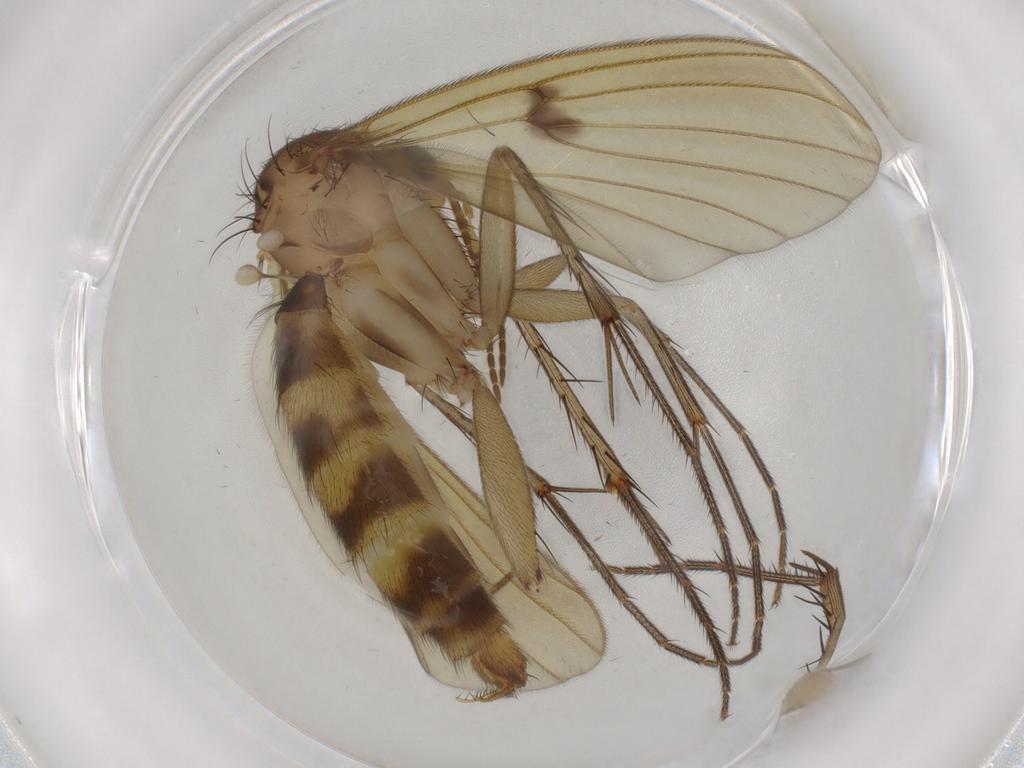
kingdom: Animalia
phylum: Arthropoda
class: Insecta
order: Diptera
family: Mycetophilidae
